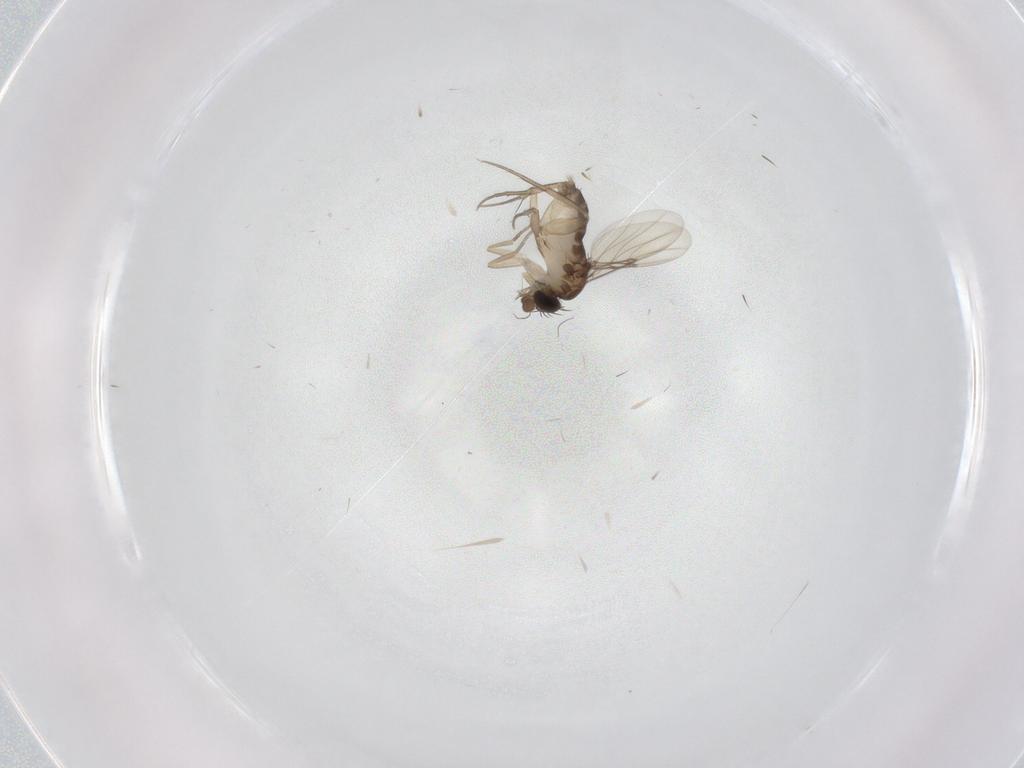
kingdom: Animalia
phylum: Arthropoda
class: Insecta
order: Diptera
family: Phoridae
